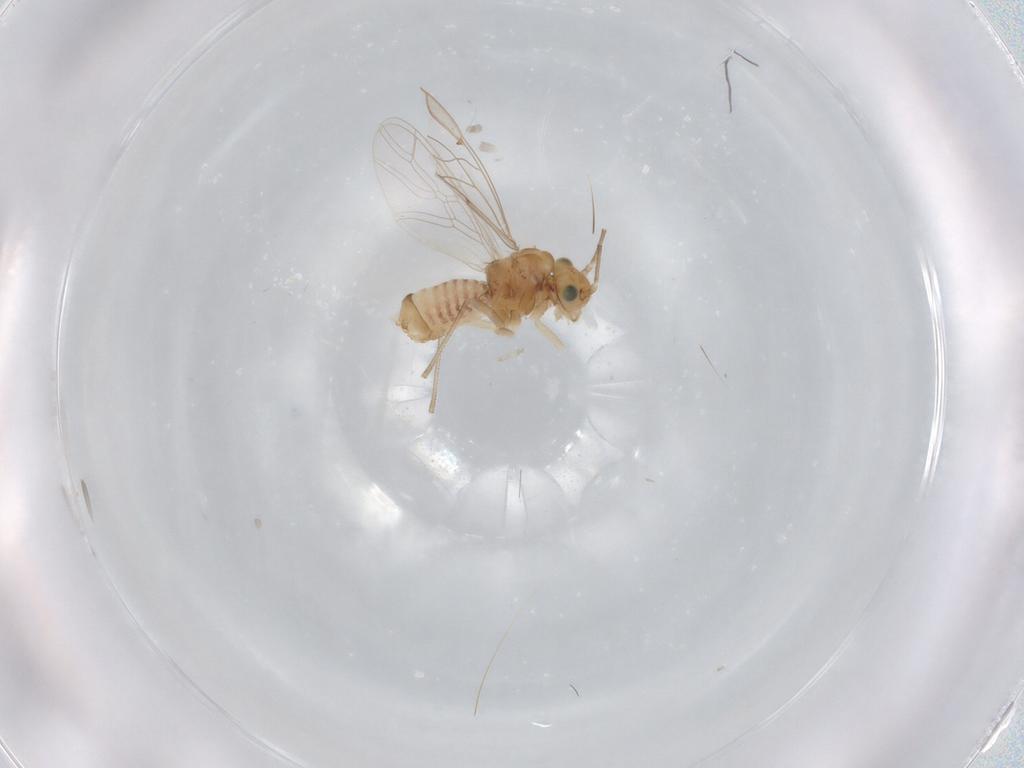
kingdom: Animalia
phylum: Arthropoda
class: Insecta
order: Psocodea
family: Lachesillidae
